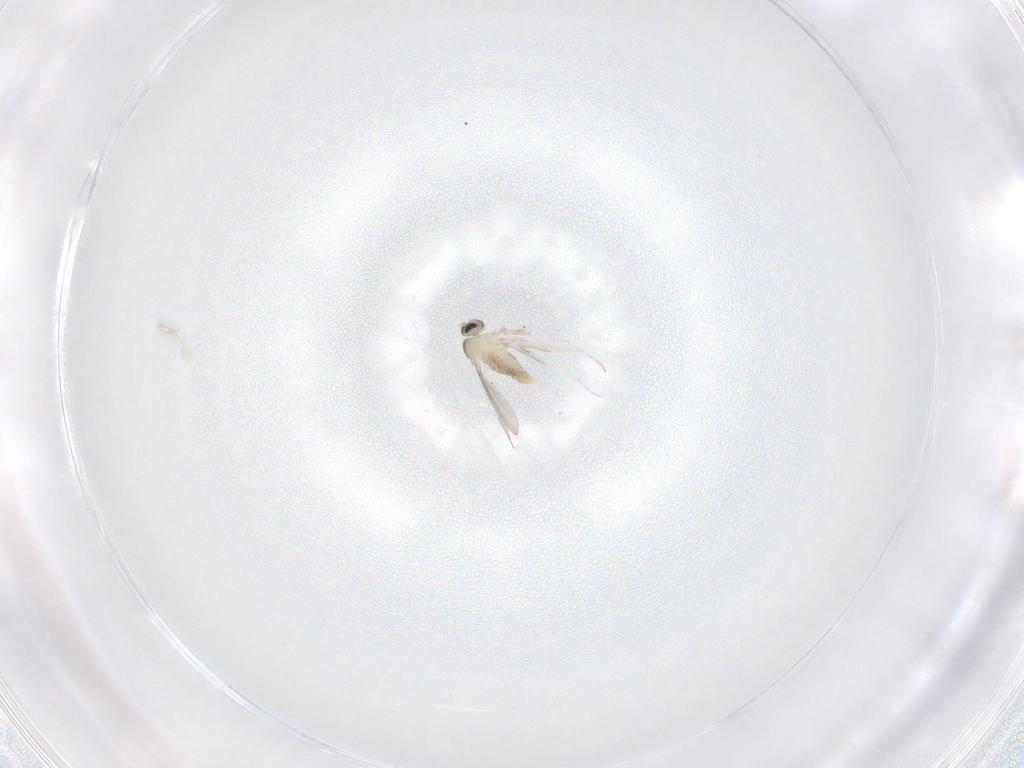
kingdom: Animalia
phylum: Arthropoda
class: Insecta
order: Diptera
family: Cecidomyiidae
